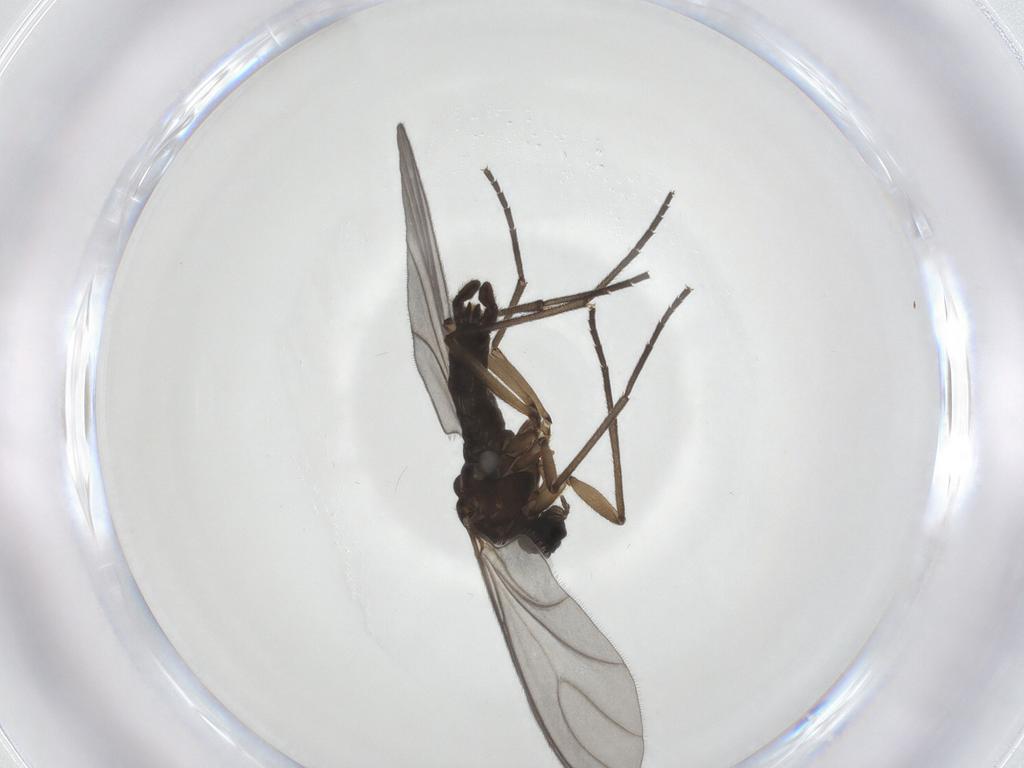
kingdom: Animalia
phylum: Arthropoda
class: Insecta
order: Diptera
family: Sciaridae
